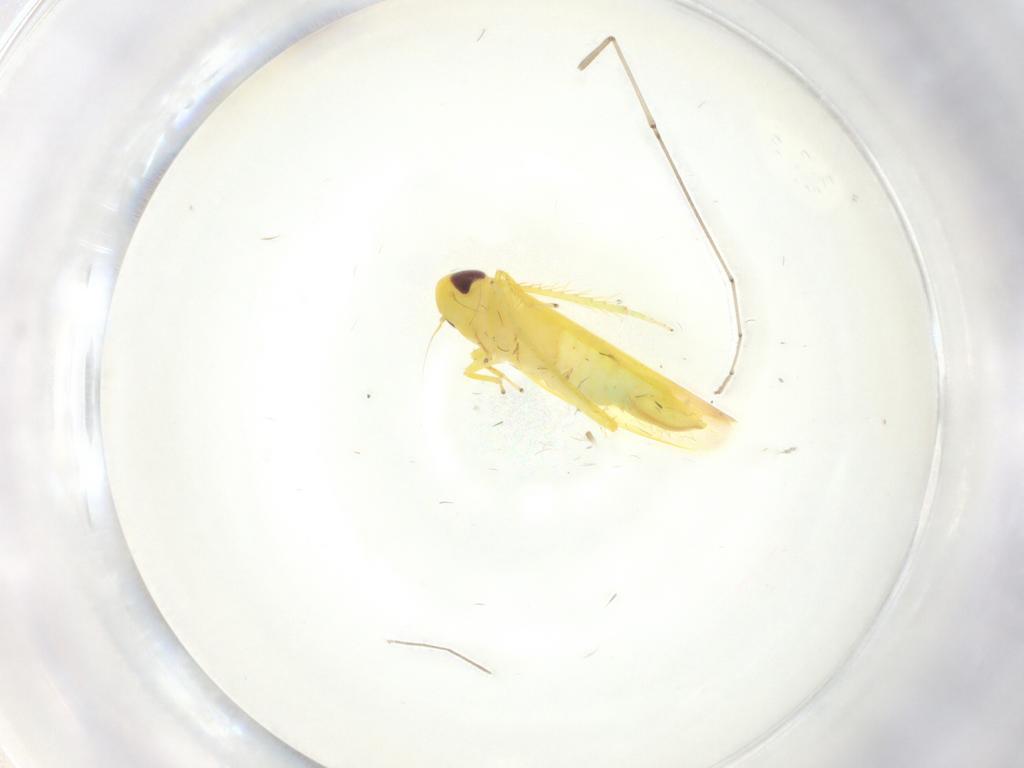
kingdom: Animalia
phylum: Arthropoda
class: Insecta
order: Hemiptera
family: Cicadellidae
